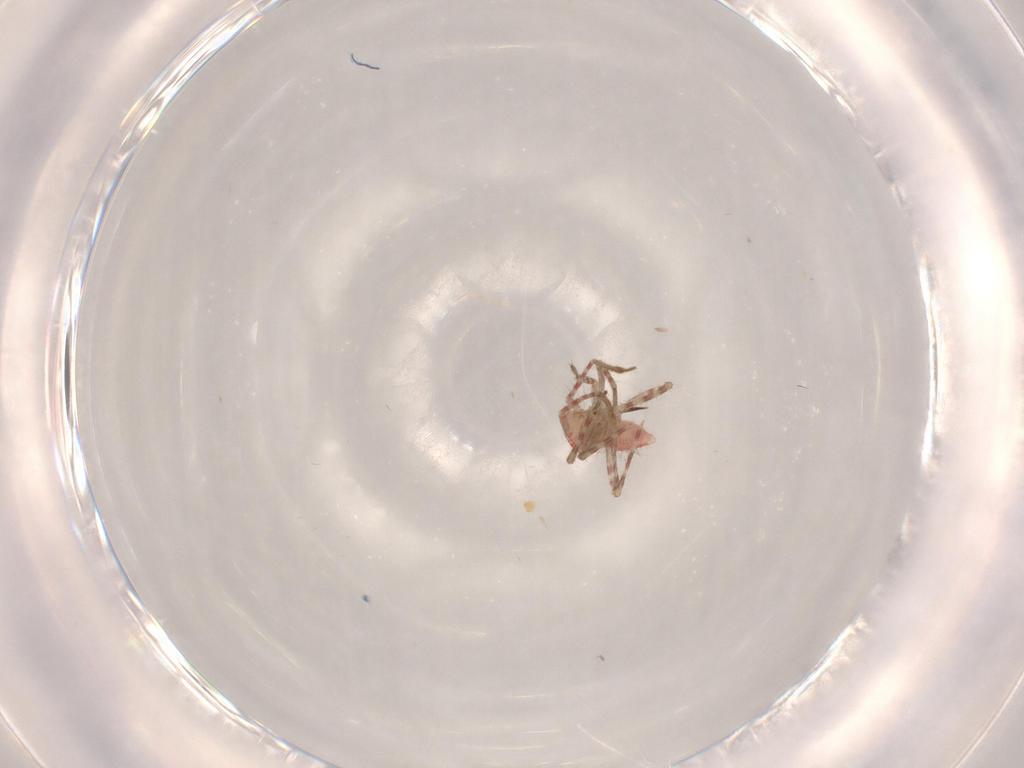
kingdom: Animalia
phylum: Arthropoda
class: Insecta
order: Hemiptera
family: Miridae
